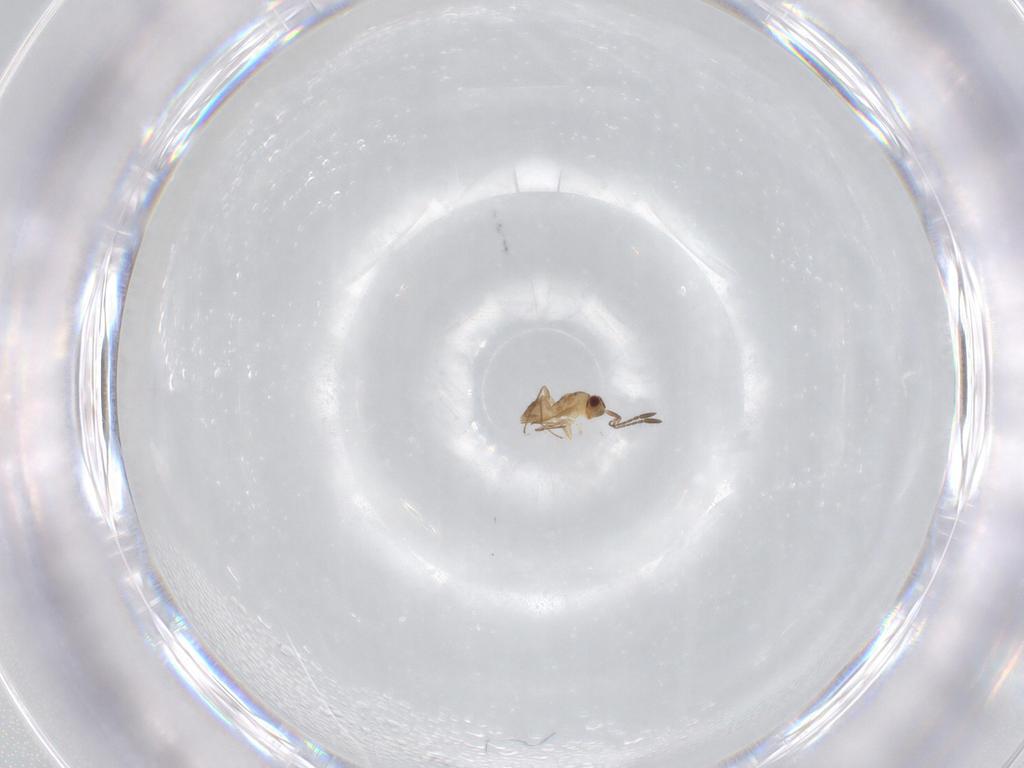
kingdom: Animalia
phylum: Arthropoda
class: Insecta
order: Hymenoptera
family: Mymaridae
